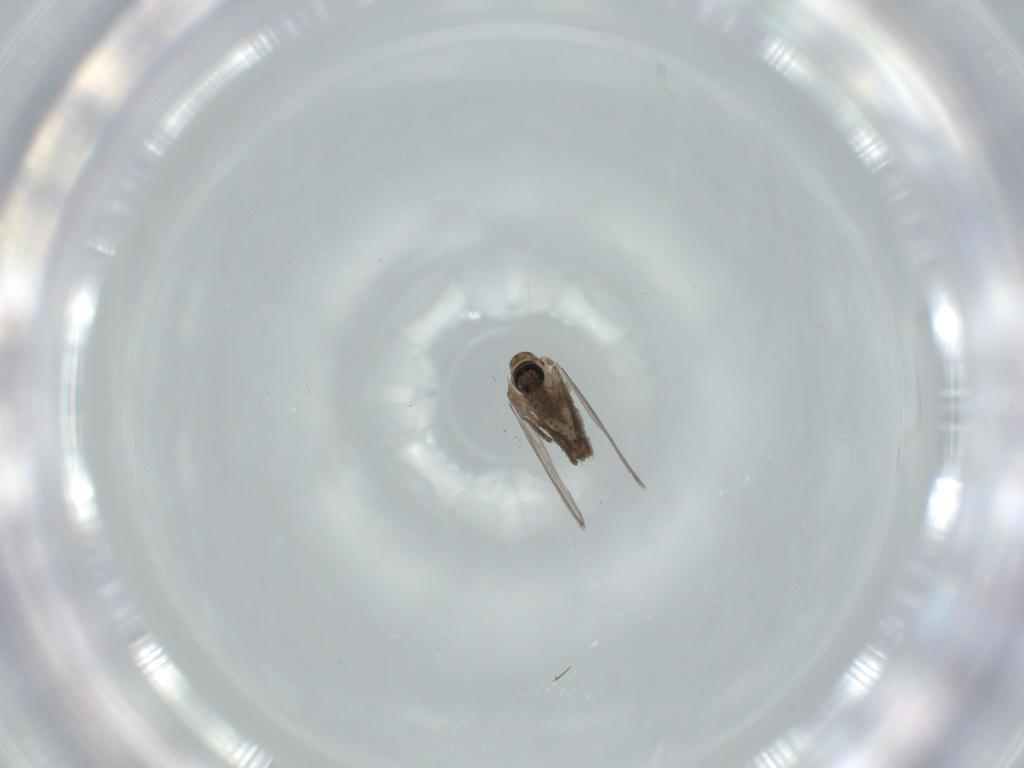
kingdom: Animalia
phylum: Arthropoda
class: Insecta
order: Diptera
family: Psychodidae
